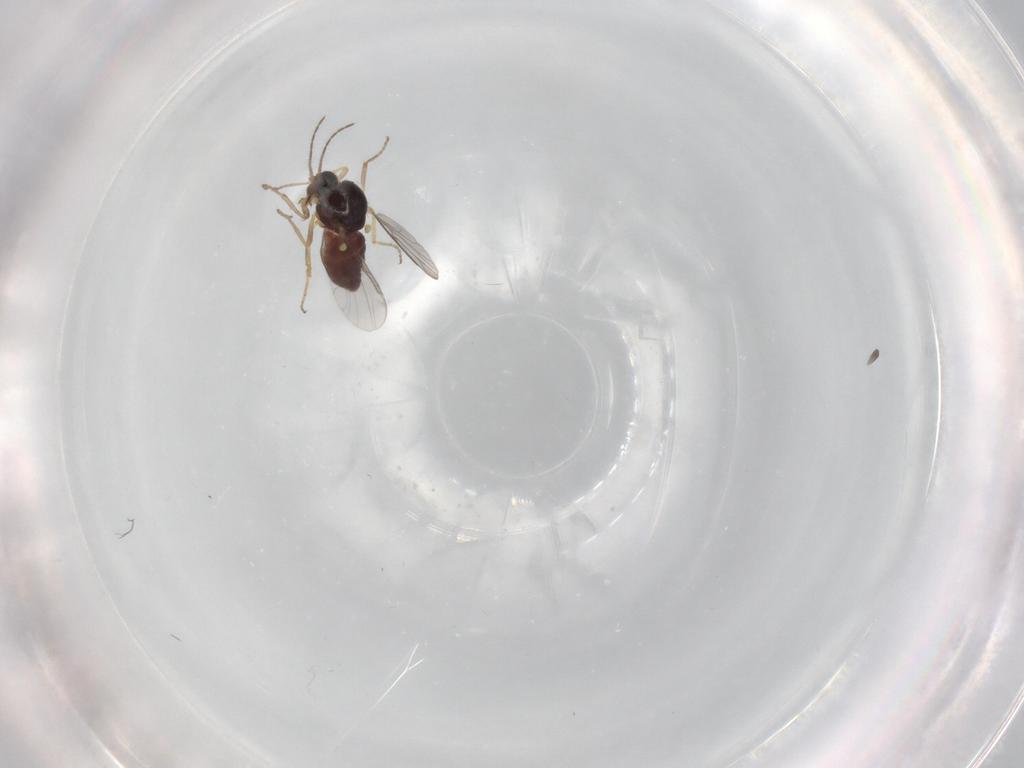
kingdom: Animalia
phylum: Arthropoda
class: Insecta
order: Diptera
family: Ceratopogonidae
